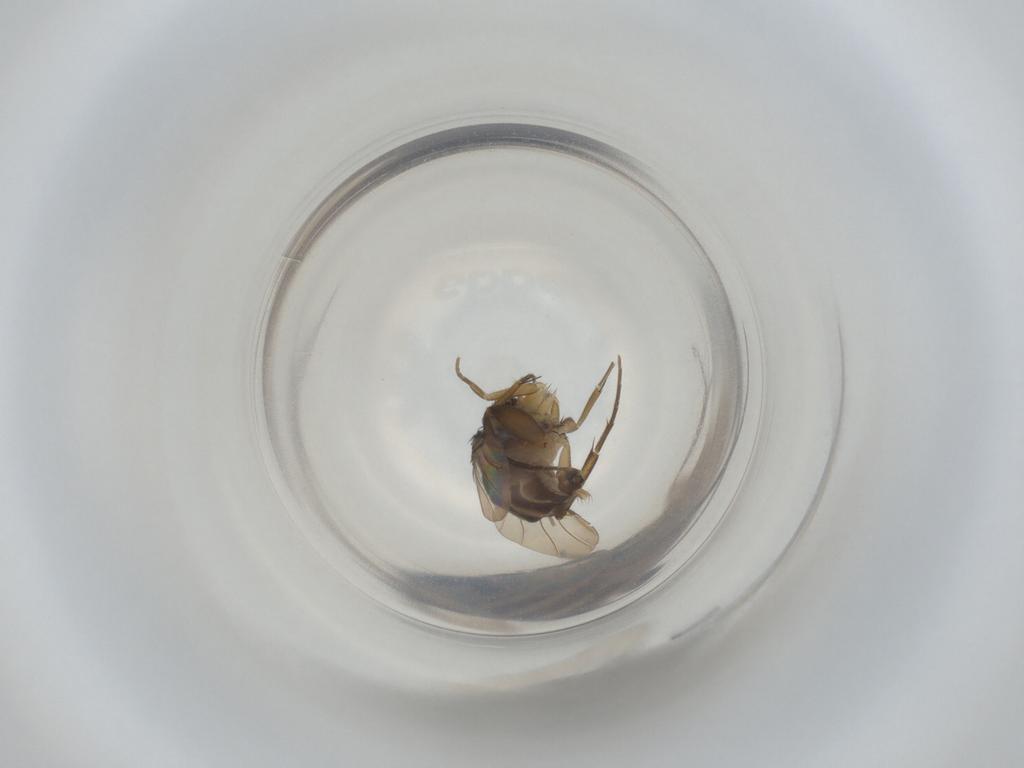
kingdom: Animalia
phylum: Arthropoda
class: Insecta
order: Diptera
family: Phoridae
